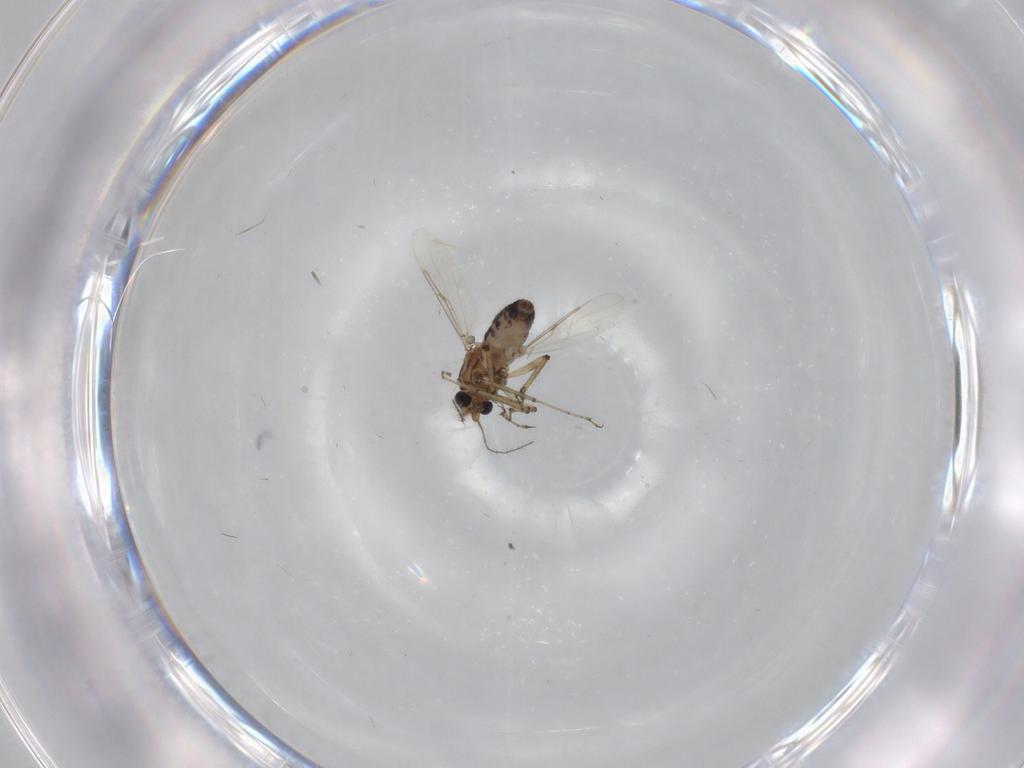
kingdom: Animalia
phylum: Arthropoda
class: Insecta
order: Diptera
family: Ceratopogonidae
